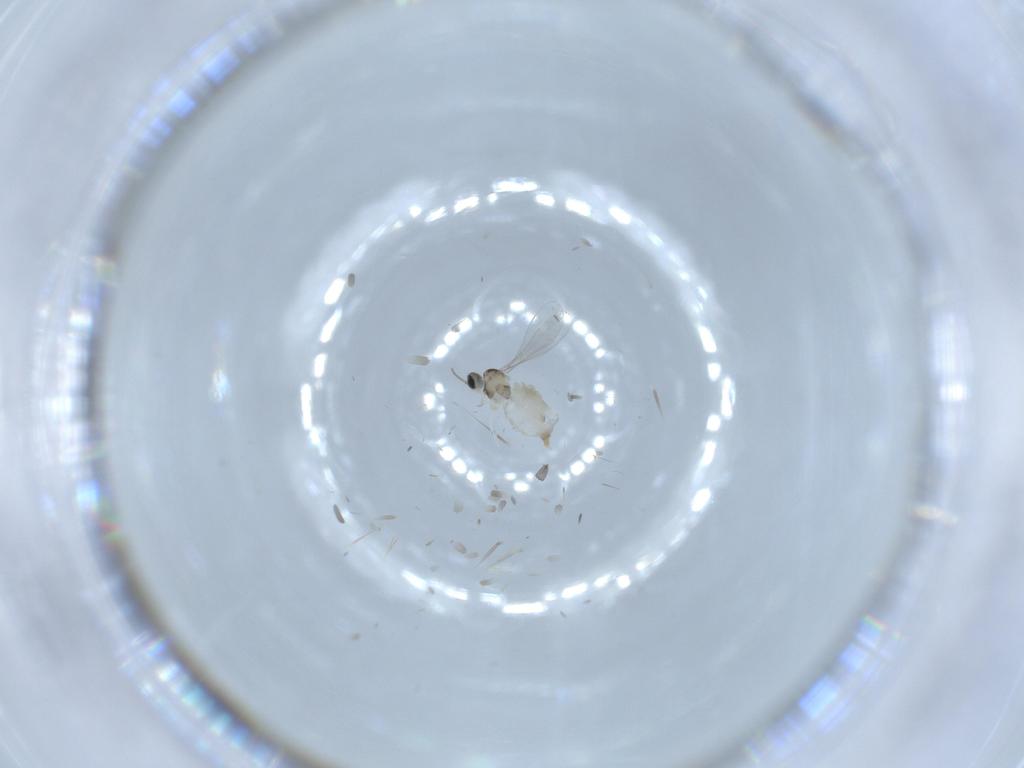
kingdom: Animalia
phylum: Arthropoda
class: Insecta
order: Diptera
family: Cecidomyiidae
